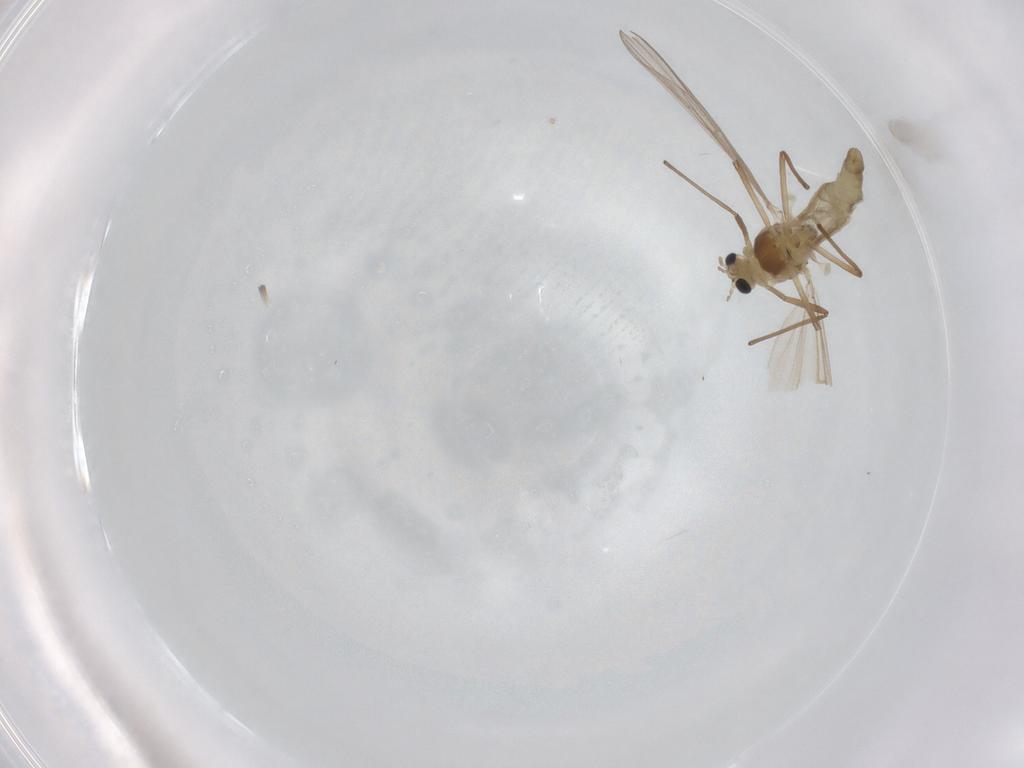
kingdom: Animalia
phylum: Arthropoda
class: Insecta
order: Diptera
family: Chironomidae
